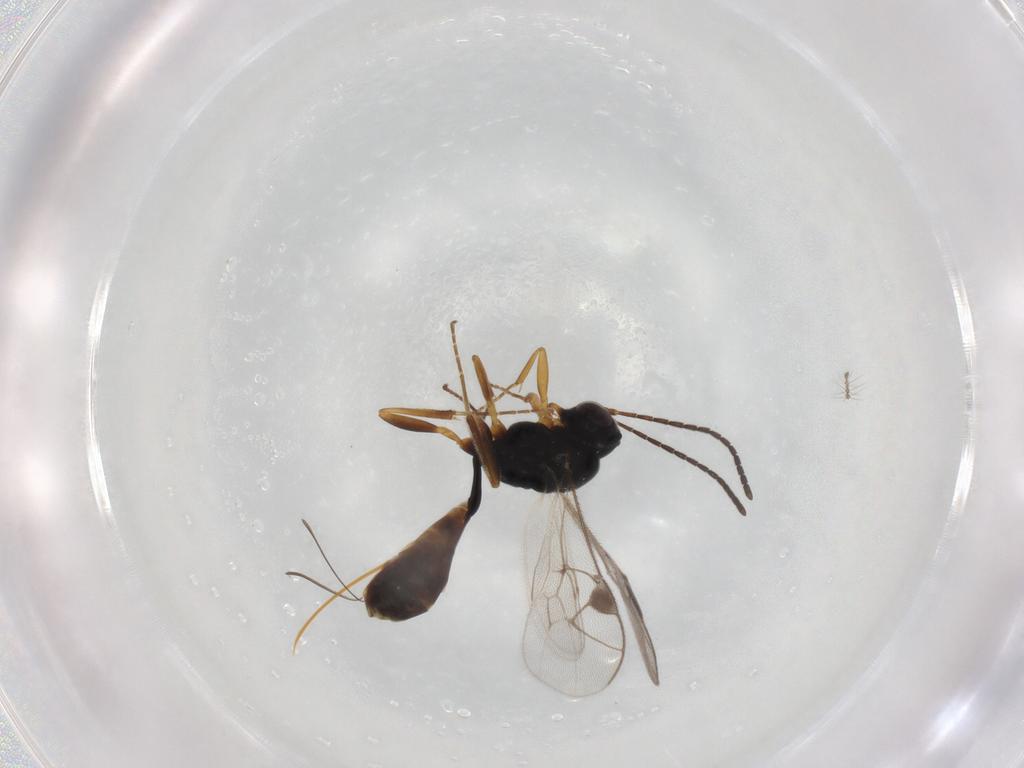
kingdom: Animalia
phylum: Arthropoda
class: Insecta
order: Hymenoptera
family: Ichneumonidae
